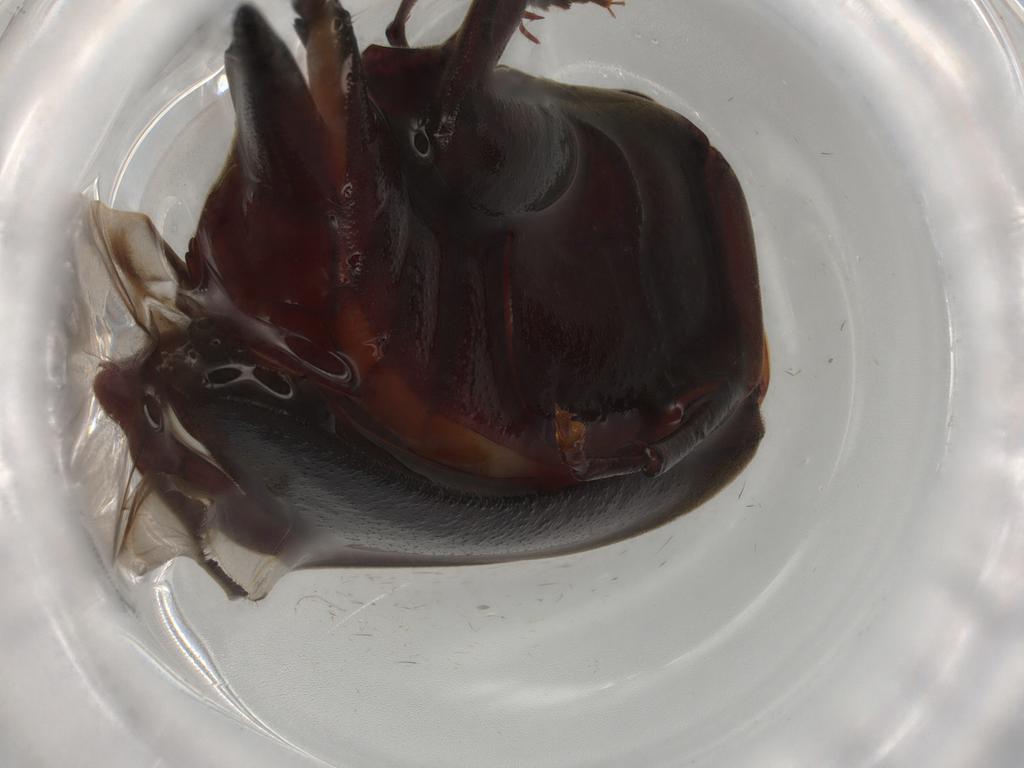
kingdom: Animalia
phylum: Arthropoda
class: Insecta
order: Coleoptera
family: Mordellidae
